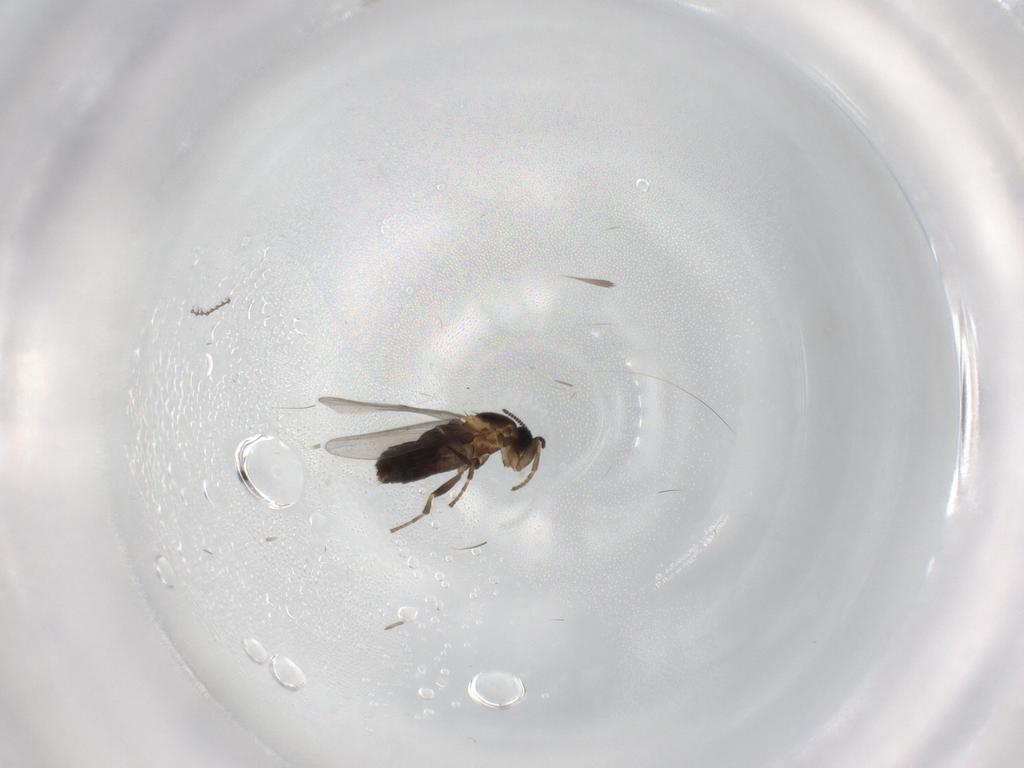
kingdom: Animalia
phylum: Arthropoda
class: Insecta
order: Diptera
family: Scatopsidae
